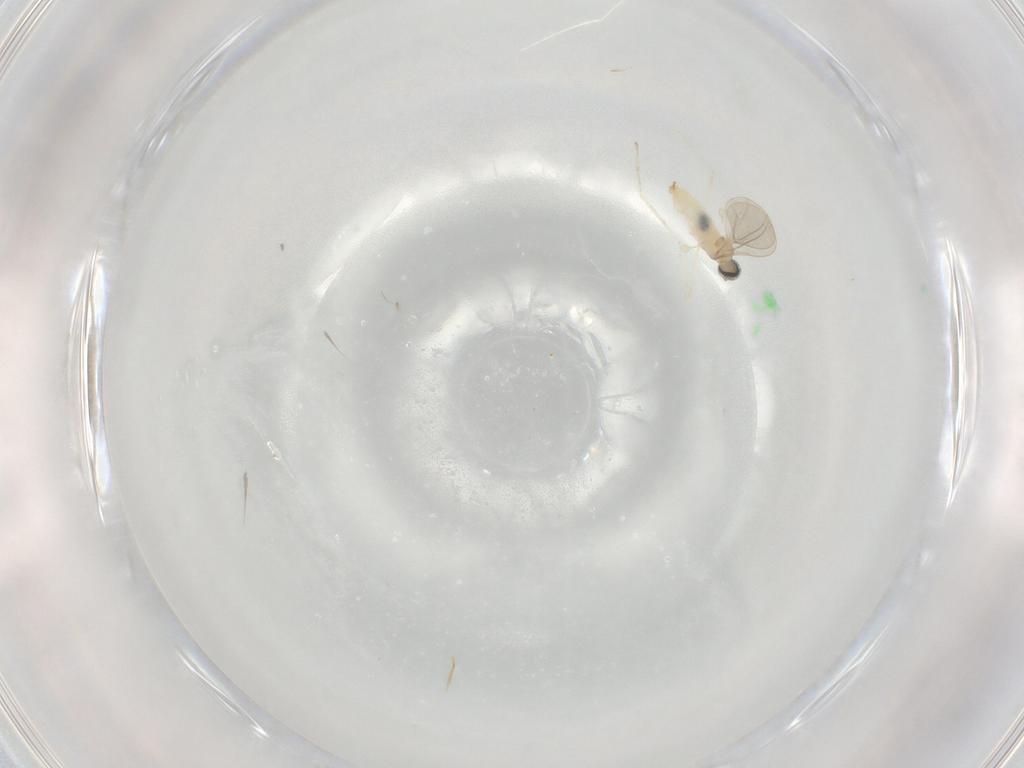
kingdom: Animalia
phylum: Arthropoda
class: Insecta
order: Diptera
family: Cecidomyiidae
